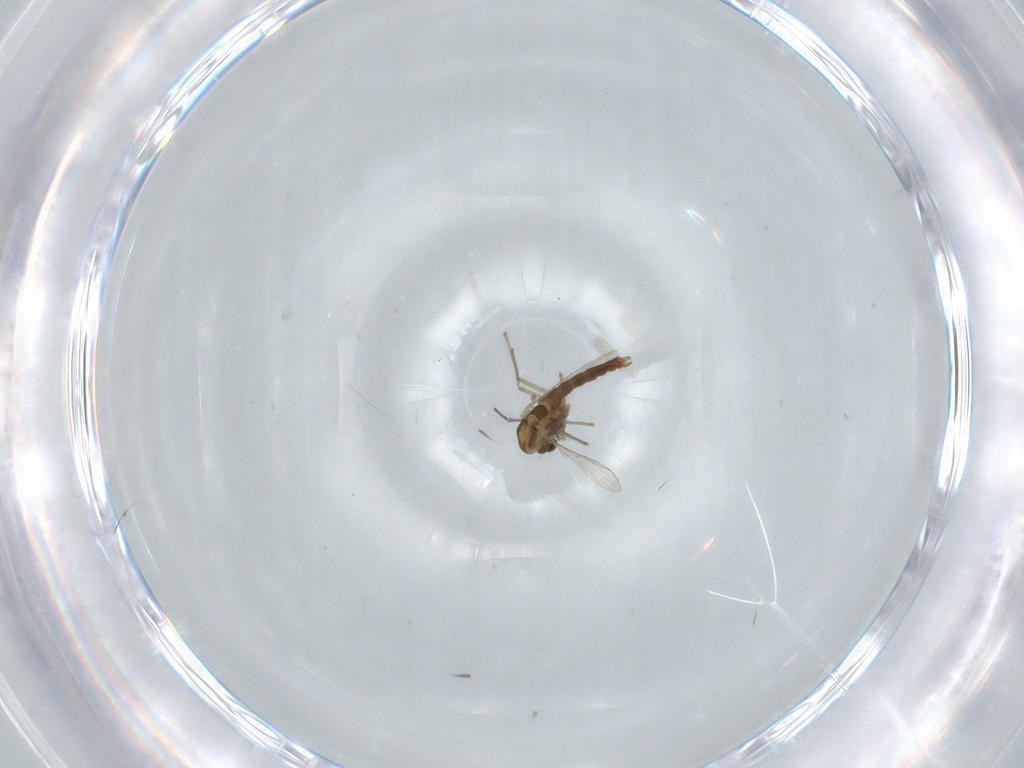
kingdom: Animalia
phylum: Arthropoda
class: Insecta
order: Diptera
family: Chironomidae
